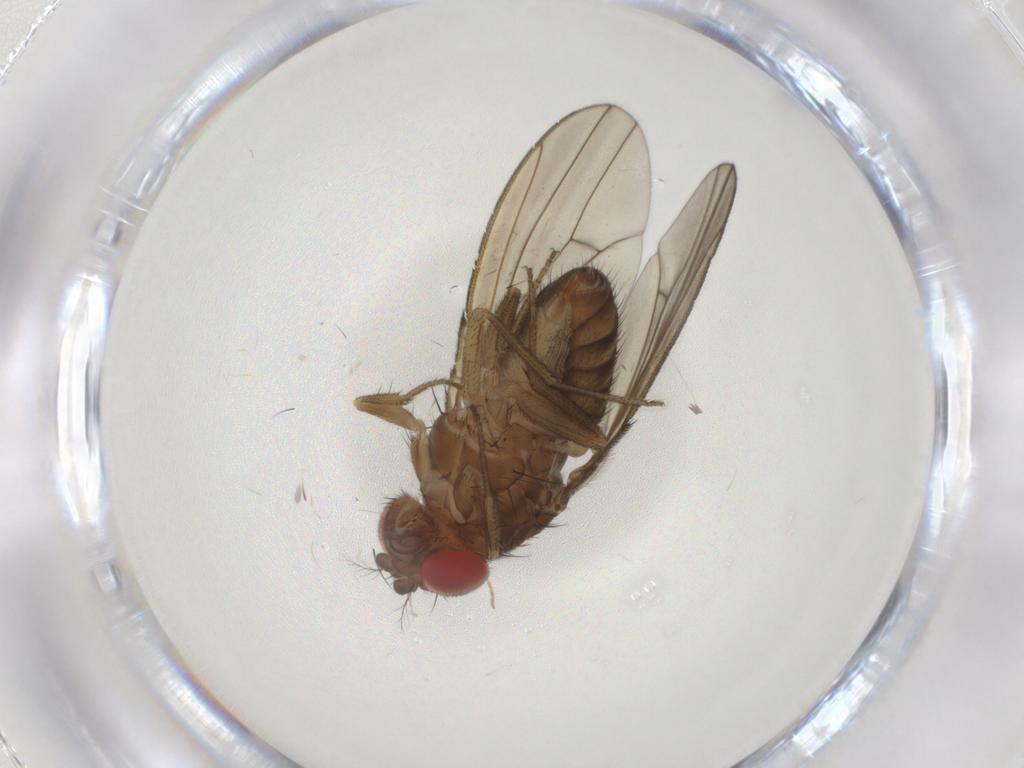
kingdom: Animalia
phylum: Arthropoda
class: Insecta
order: Diptera
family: Drosophilidae
